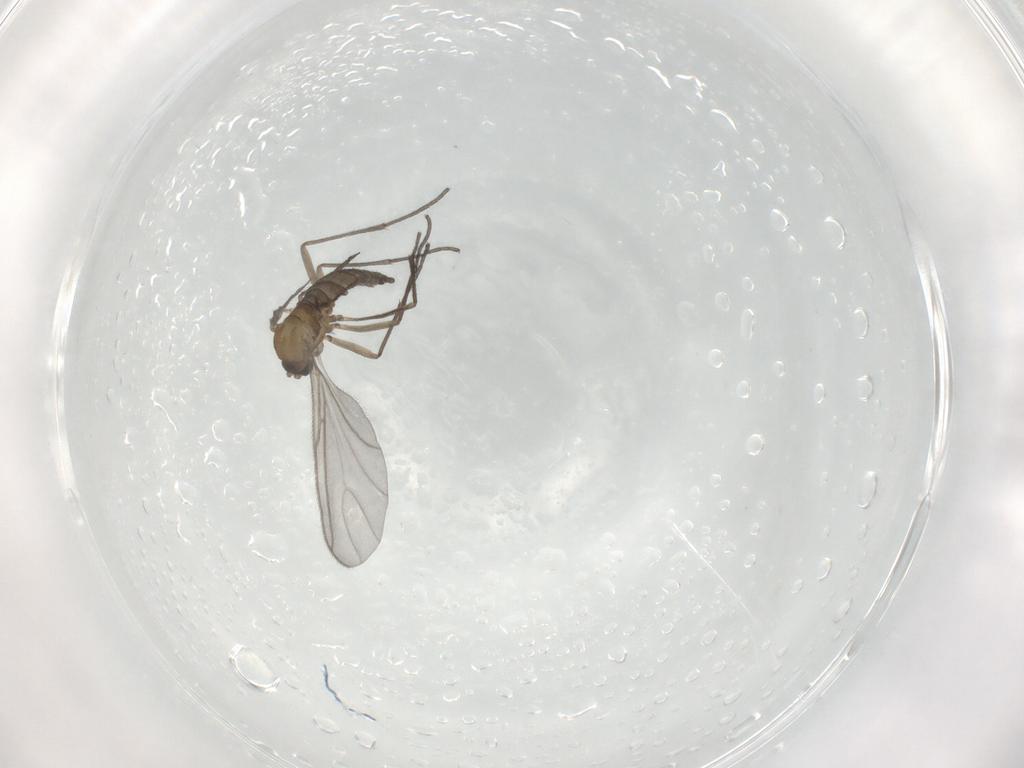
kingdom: Animalia
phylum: Arthropoda
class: Insecta
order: Diptera
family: Sciaridae
